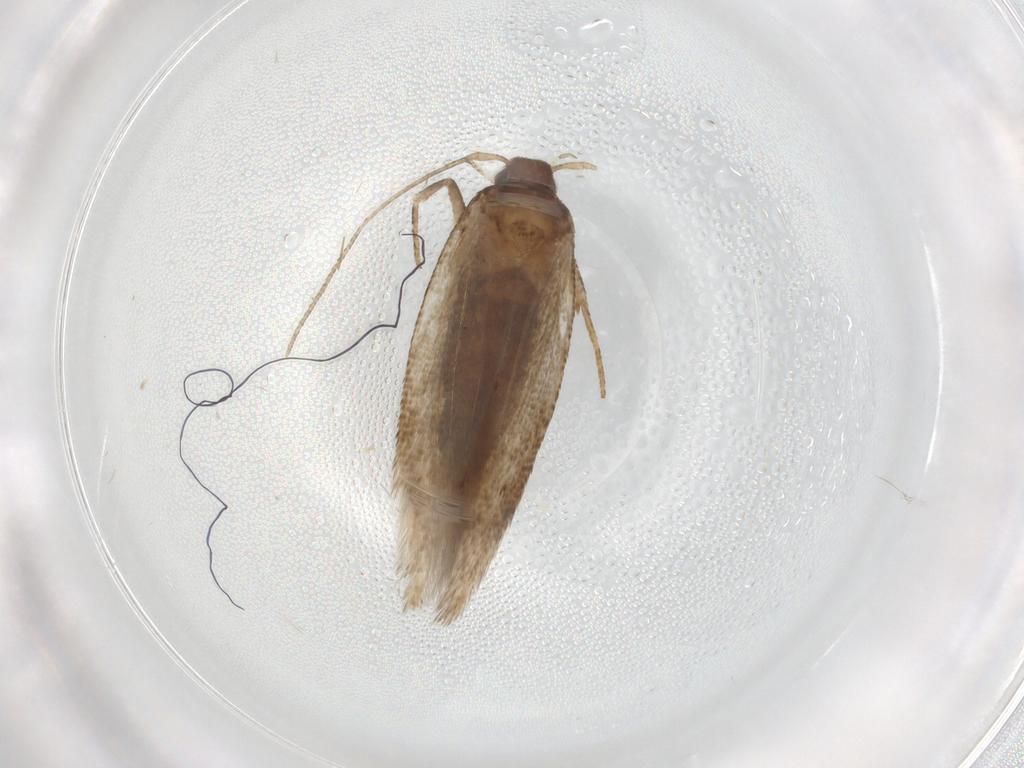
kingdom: Animalia
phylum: Arthropoda
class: Insecta
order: Lepidoptera
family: Cosmopterigidae
